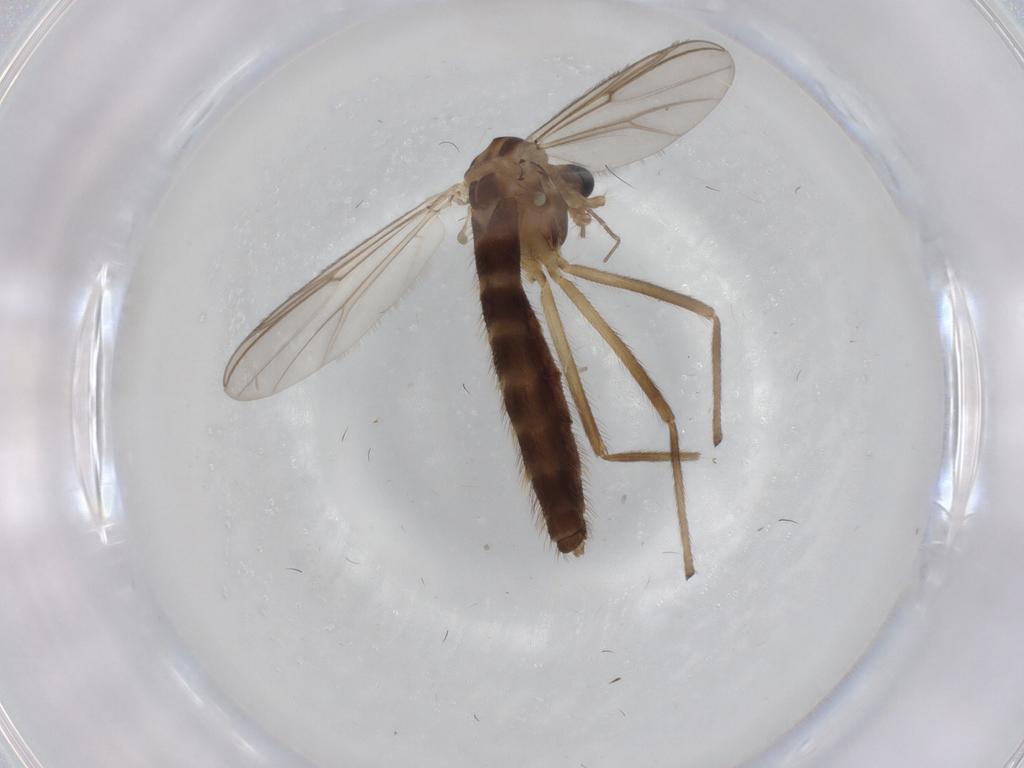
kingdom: Animalia
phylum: Arthropoda
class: Insecta
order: Diptera
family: Chironomidae
